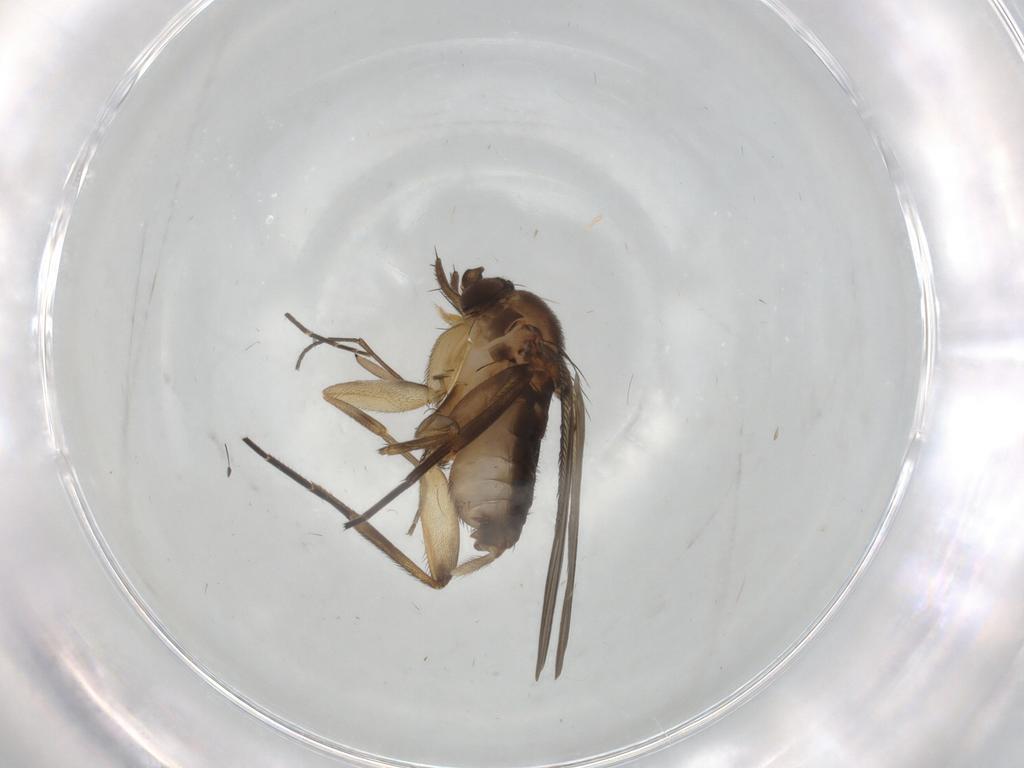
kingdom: Animalia
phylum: Arthropoda
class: Insecta
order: Diptera
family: Phoridae
